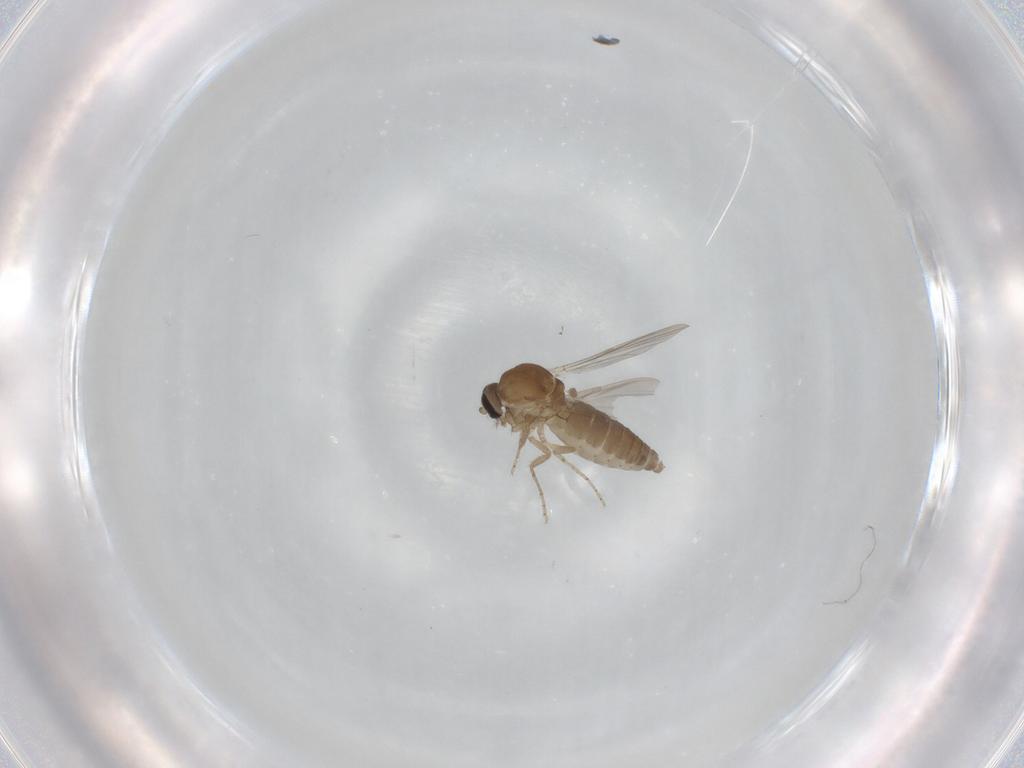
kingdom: Animalia
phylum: Arthropoda
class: Insecta
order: Diptera
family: Ceratopogonidae
